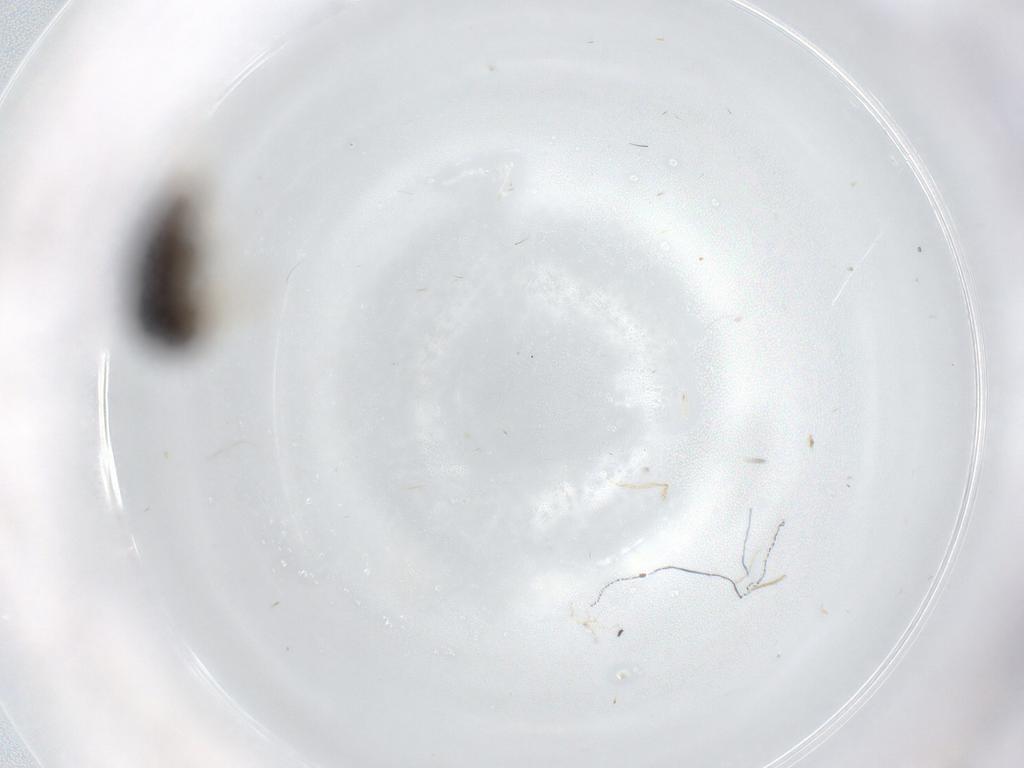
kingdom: Animalia
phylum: Arthropoda
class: Insecta
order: Coleoptera
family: Coccinellidae
